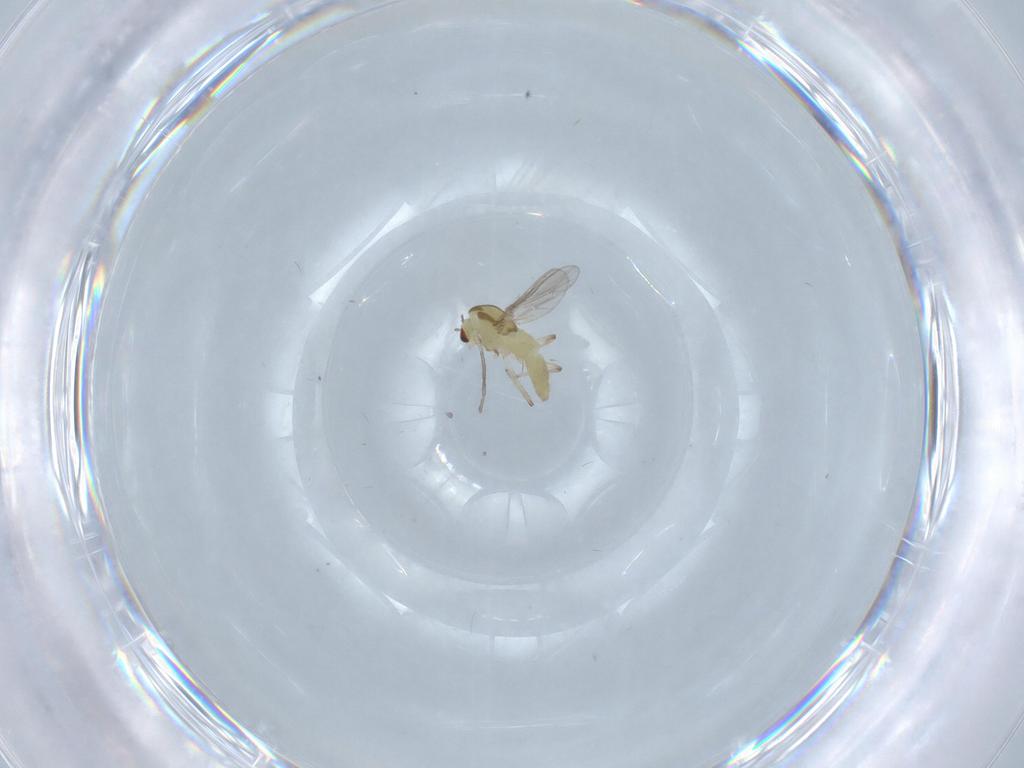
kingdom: Animalia
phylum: Arthropoda
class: Insecta
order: Diptera
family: Chironomidae
